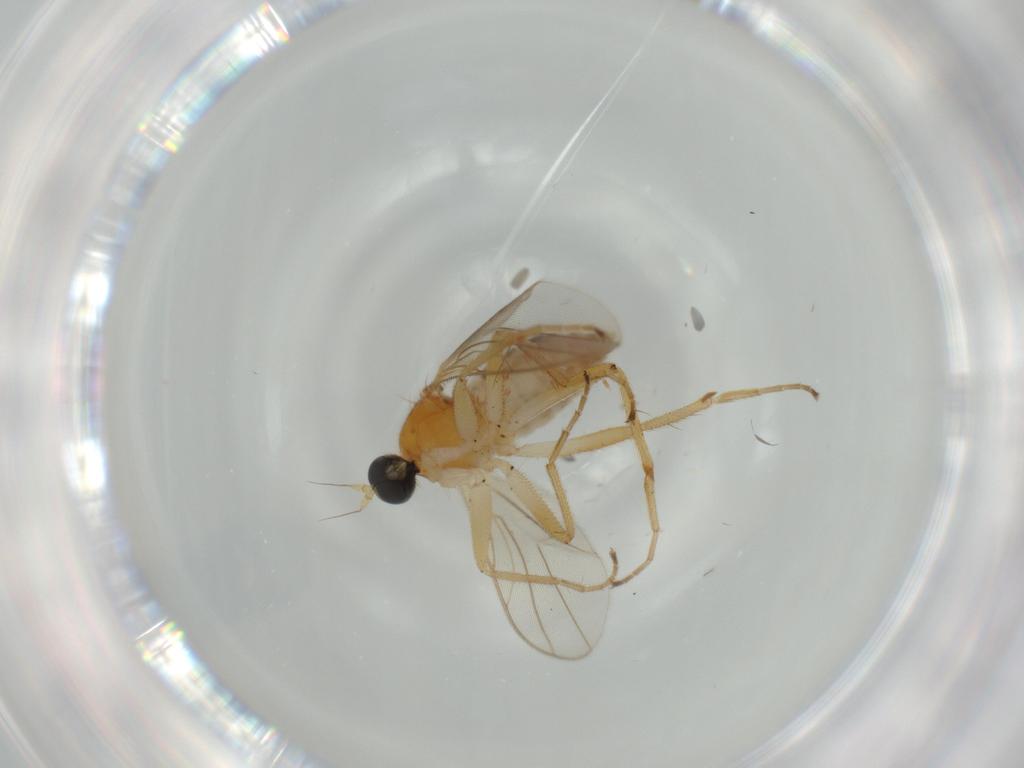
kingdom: Animalia
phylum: Arthropoda
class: Insecta
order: Diptera
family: Hybotidae
